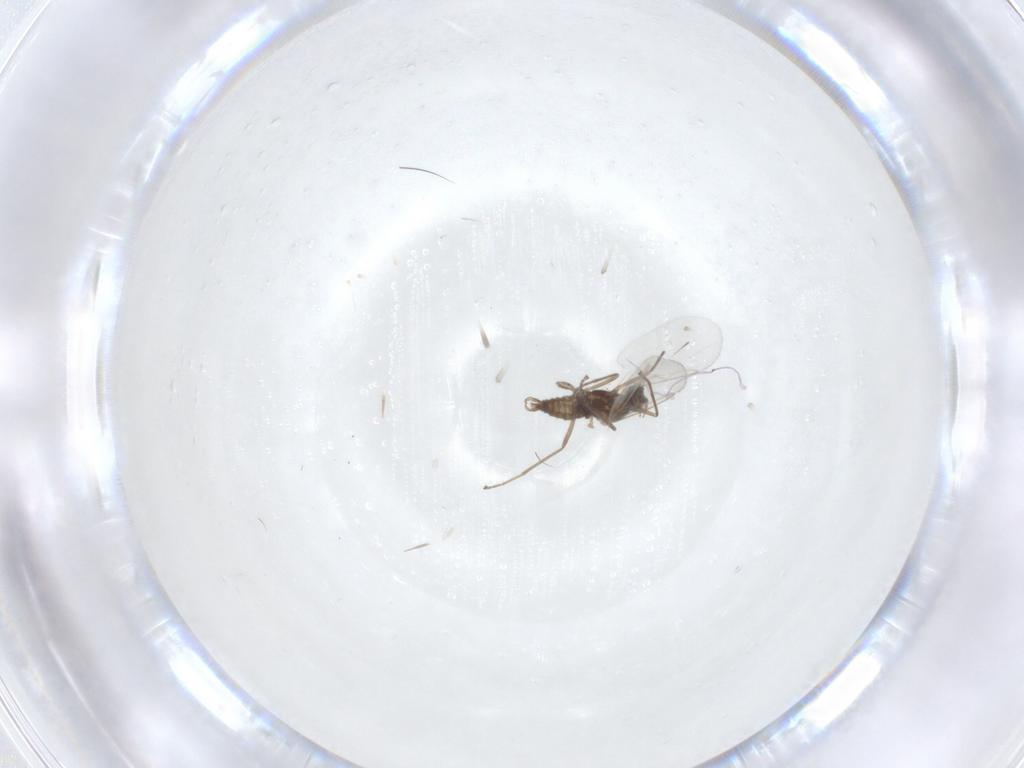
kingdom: Animalia
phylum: Arthropoda
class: Insecta
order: Diptera
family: Cecidomyiidae
